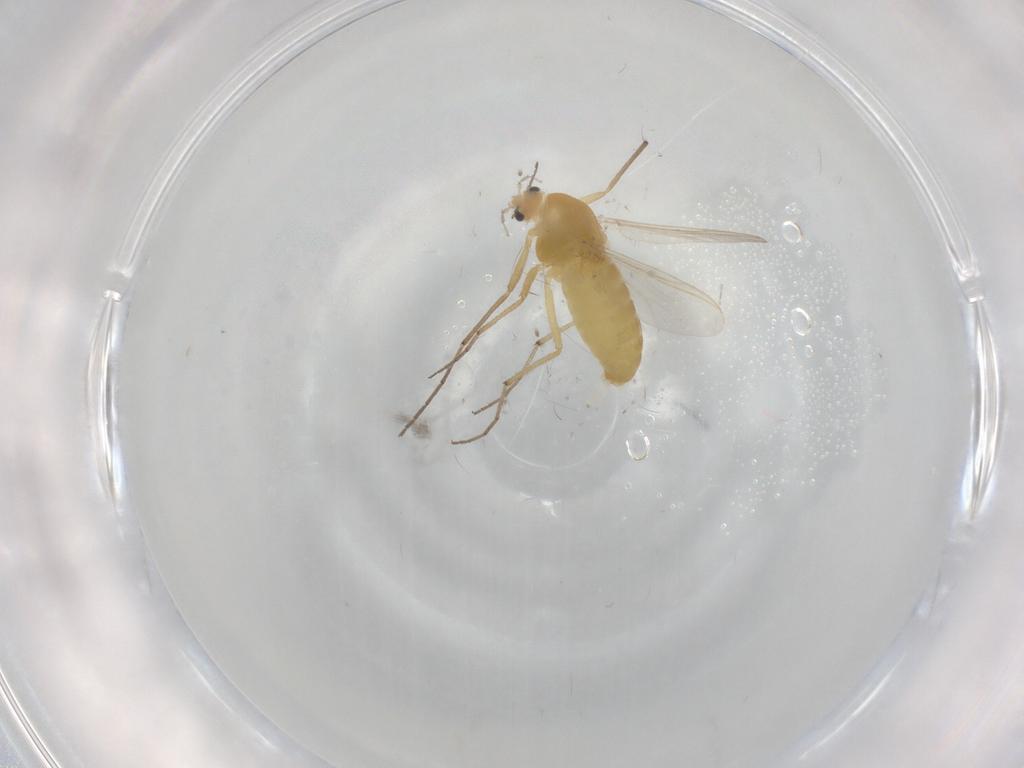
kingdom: Animalia
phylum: Arthropoda
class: Insecta
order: Diptera
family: Chironomidae
